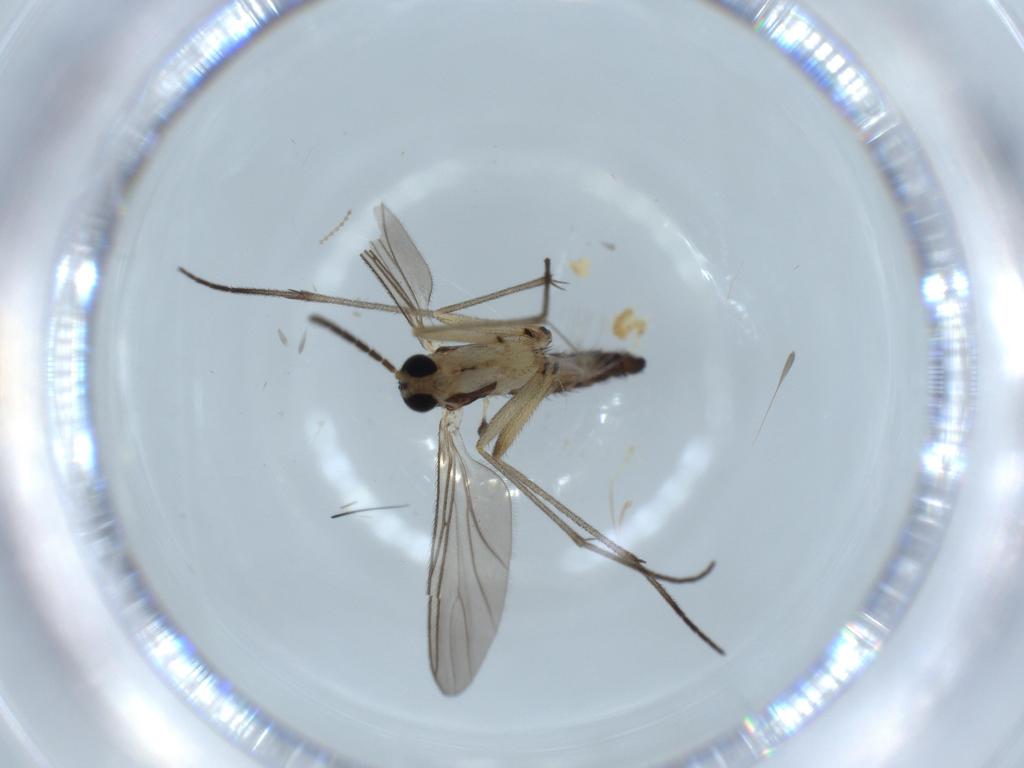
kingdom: Animalia
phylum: Arthropoda
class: Insecta
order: Diptera
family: Sciaridae
